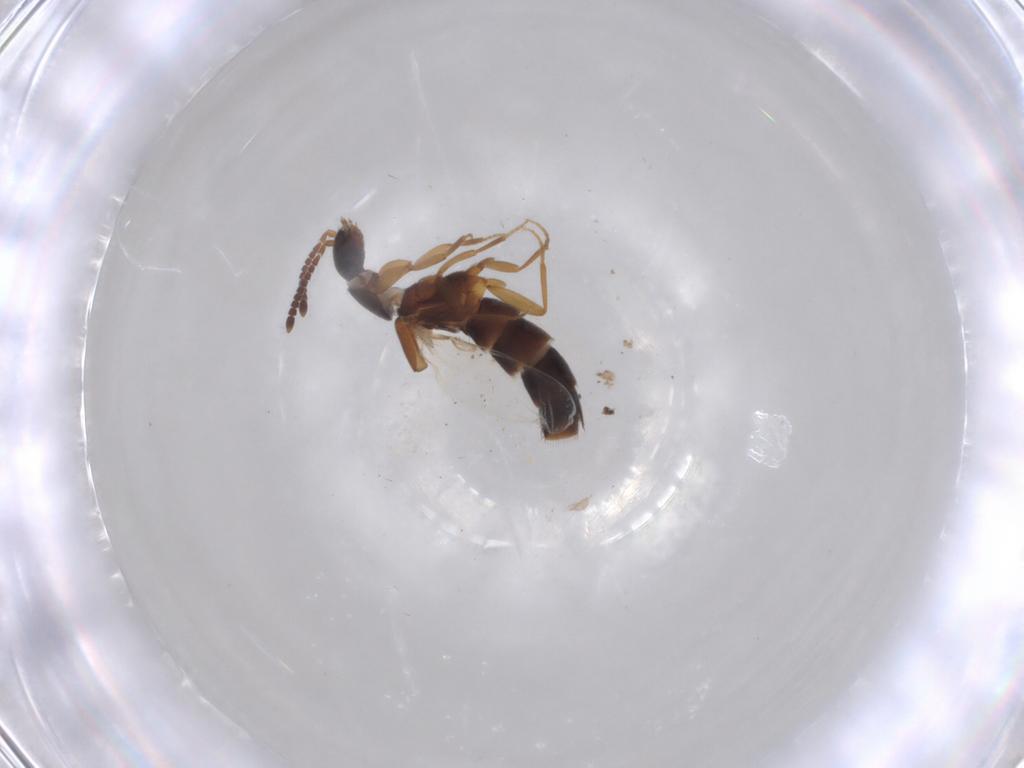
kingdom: Animalia
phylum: Arthropoda
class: Insecta
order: Coleoptera
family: Staphylinidae
